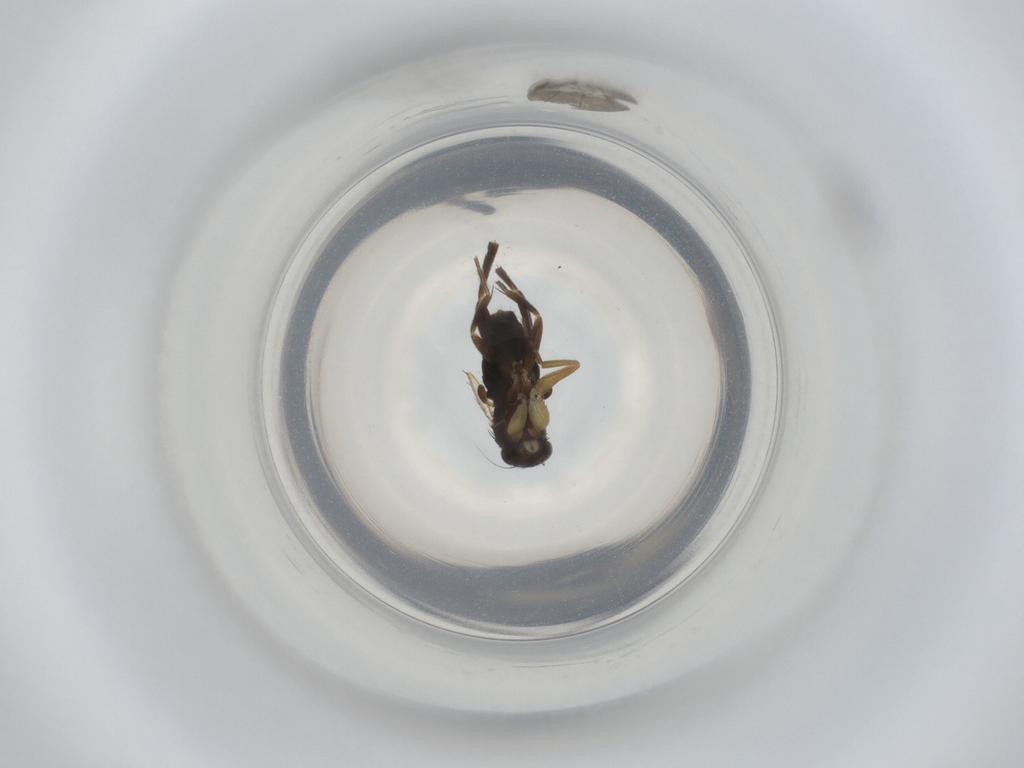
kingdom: Animalia
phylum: Arthropoda
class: Insecta
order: Diptera
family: Phoridae
